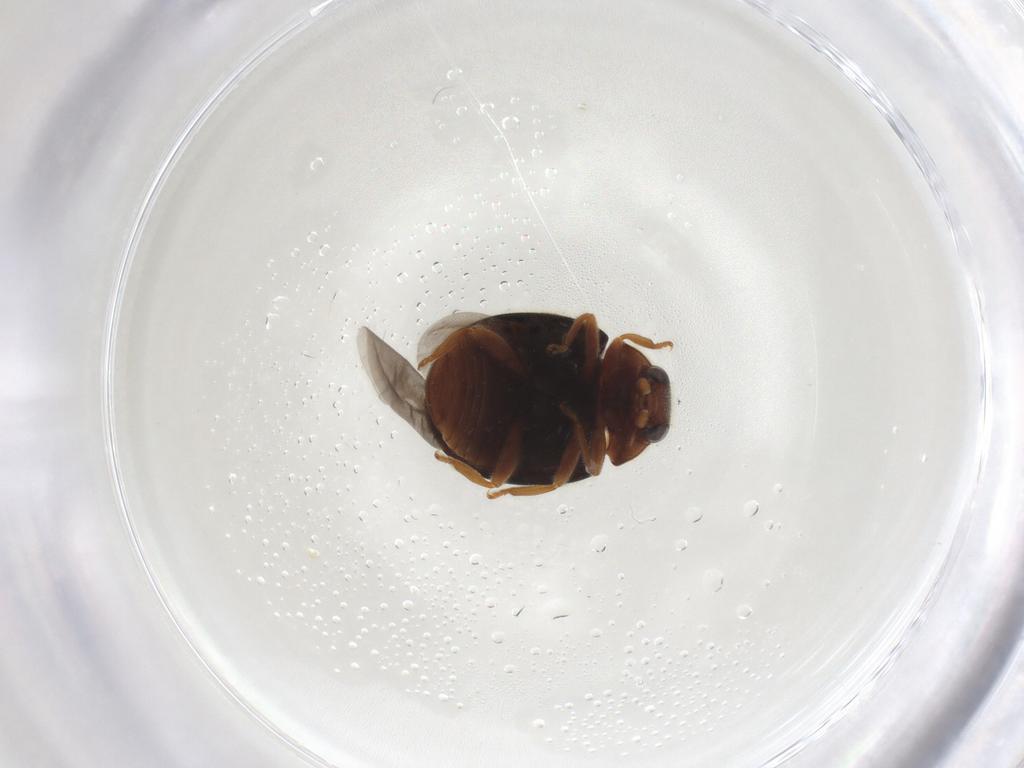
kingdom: Animalia
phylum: Arthropoda
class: Insecta
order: Coleoptera
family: Coccinellidae
